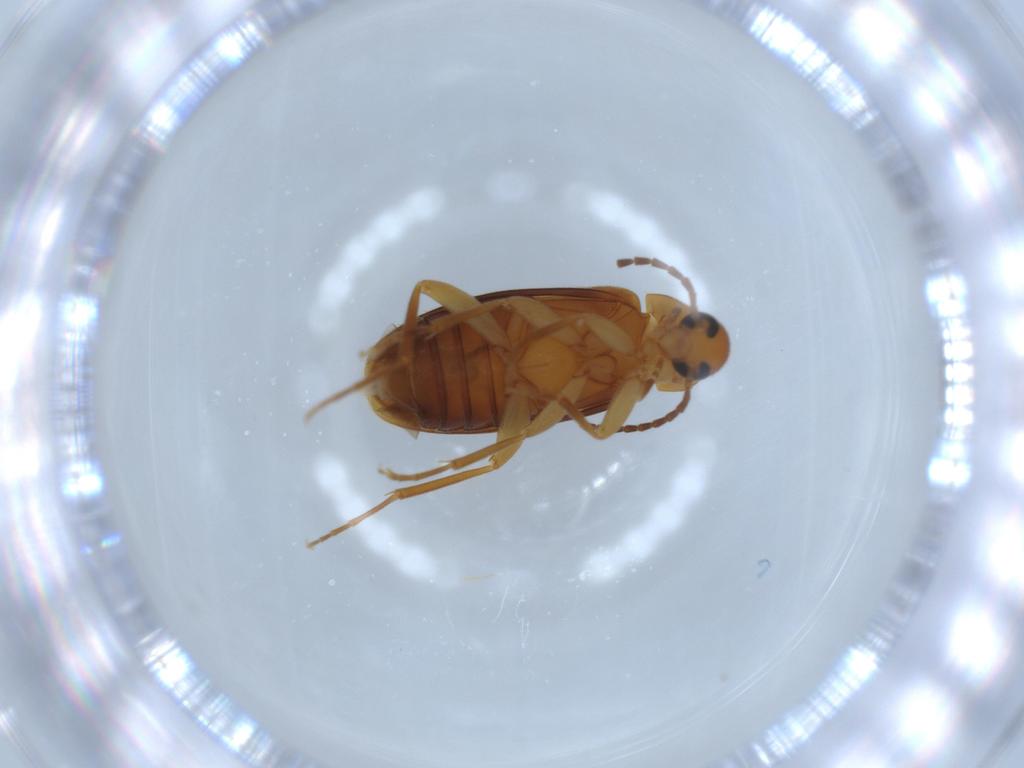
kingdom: Animalia
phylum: Arthropoda
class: Insecta
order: Coleoptera
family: Scraptiidae
